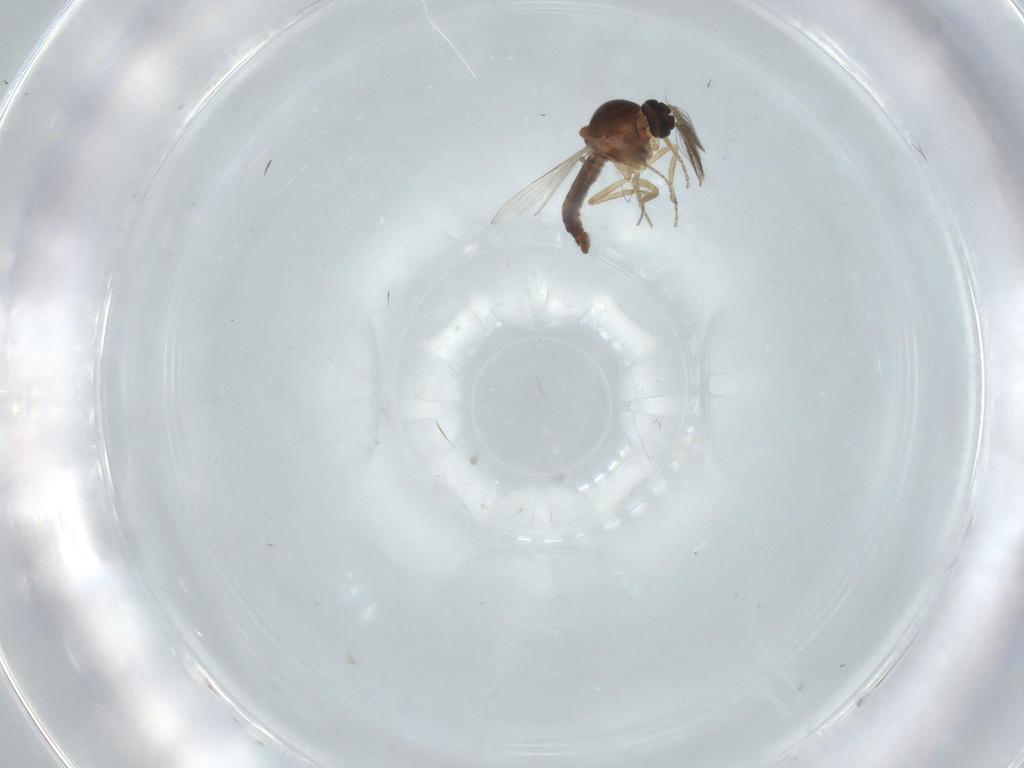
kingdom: Animalia
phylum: Arthropoda
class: Insecta
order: Diptera
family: Ceratopogonidae
